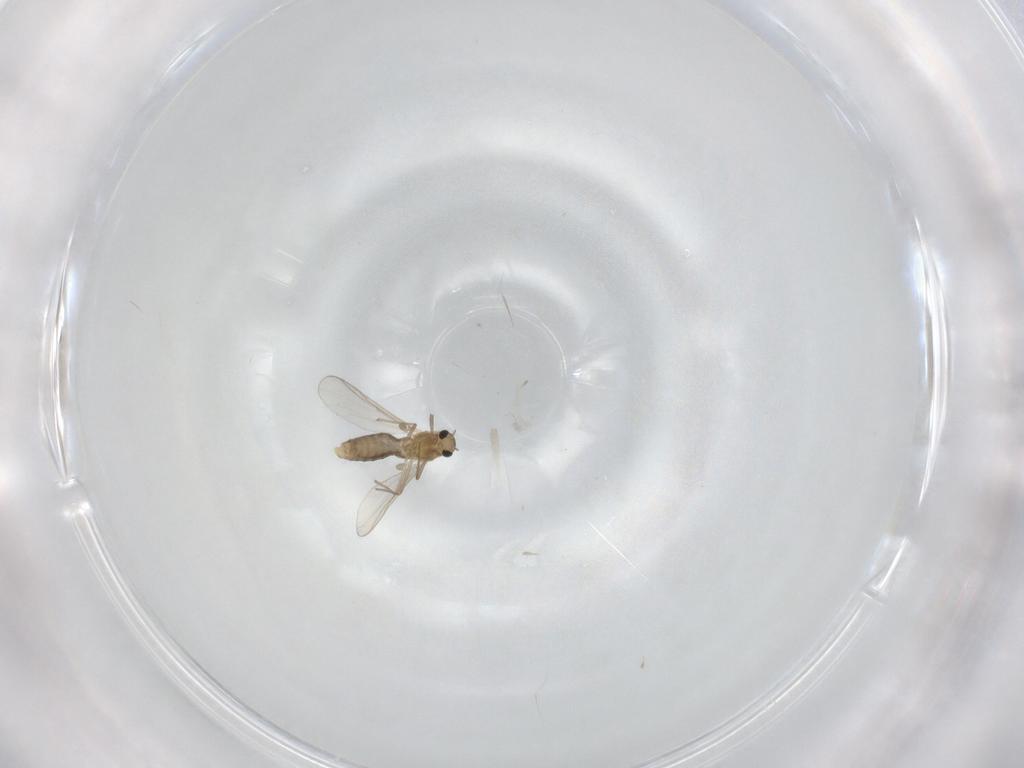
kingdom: Animalia
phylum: Arthropoda
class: Insecta
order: Diptera
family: Chironomidae
